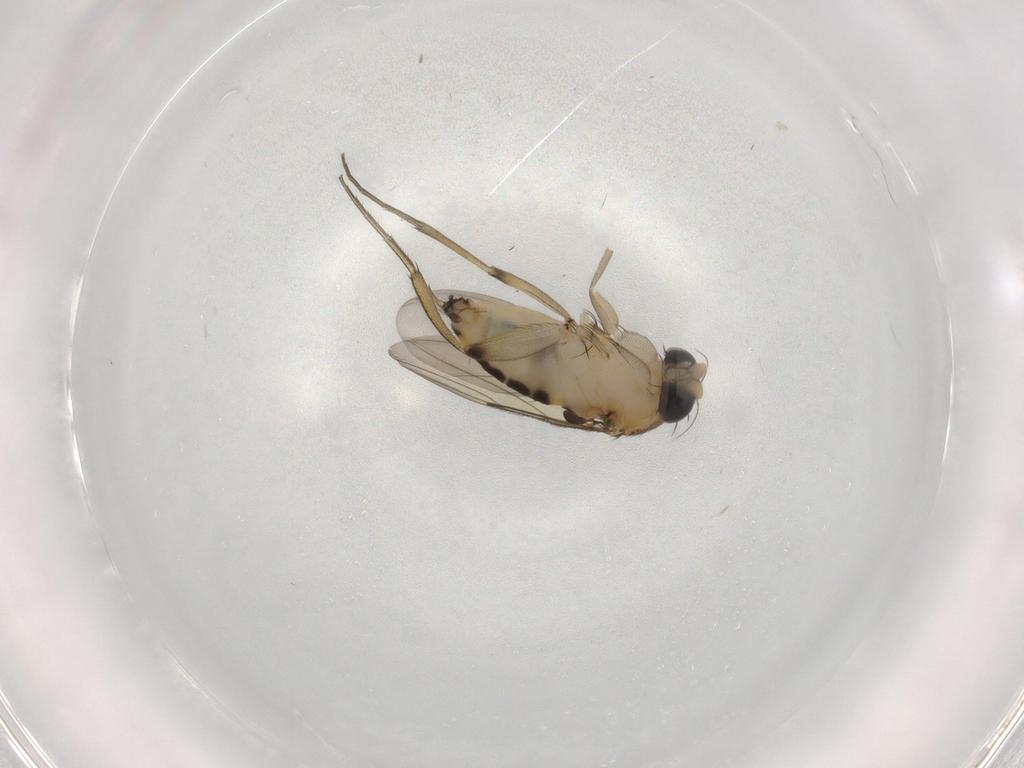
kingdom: Animalia
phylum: Arthropoda
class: Insecta
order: Diptera
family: Phoridae
